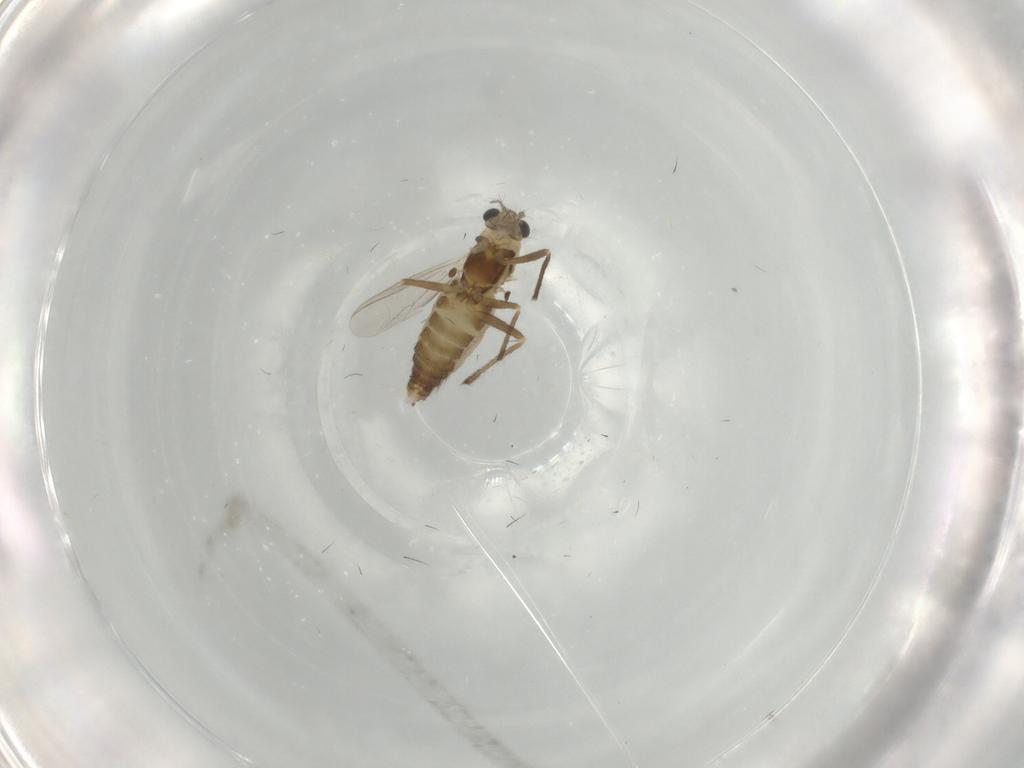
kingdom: Animalia
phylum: Arthropoda
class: Insecta
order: Diptera
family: Chironomidae
